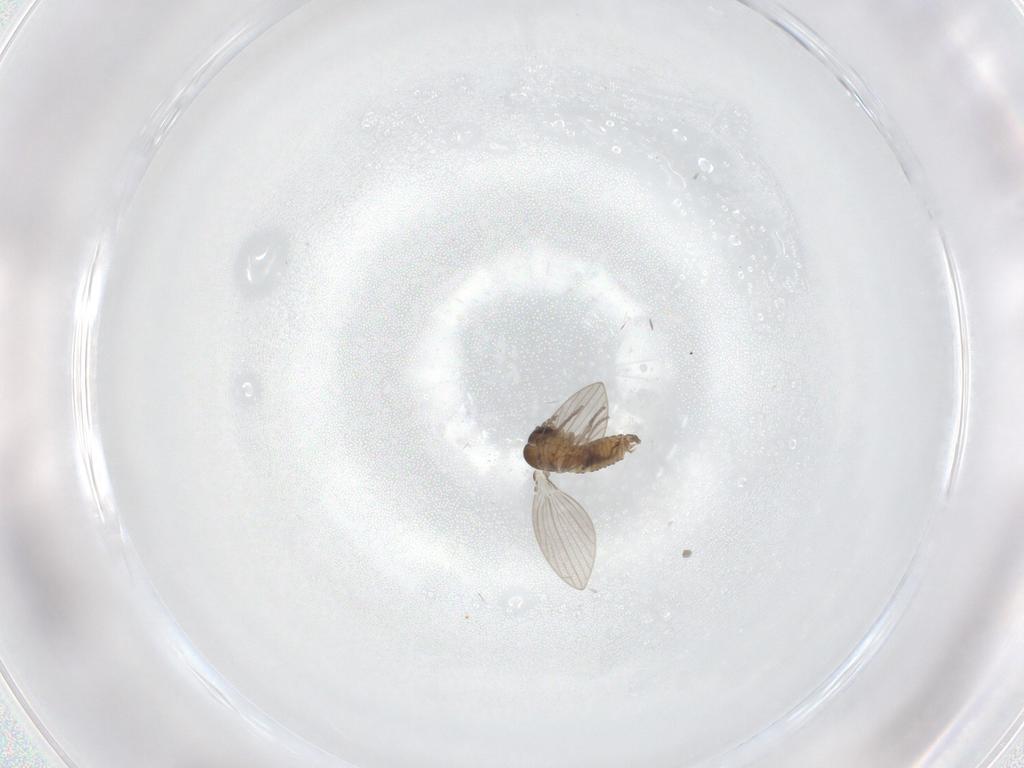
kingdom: Animalia
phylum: Arthropoda
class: Insecta
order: Diptera
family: Psychodidae
